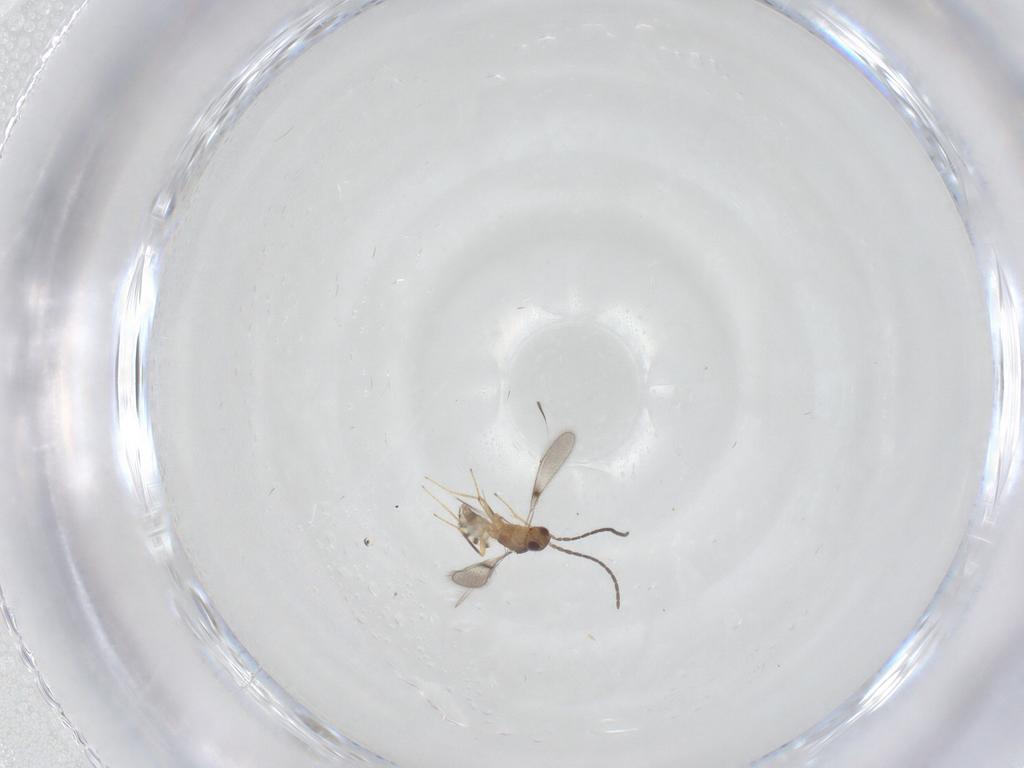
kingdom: Animalia
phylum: Arthropoda
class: Insecta
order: Hymenoptera
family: Mymaridae
